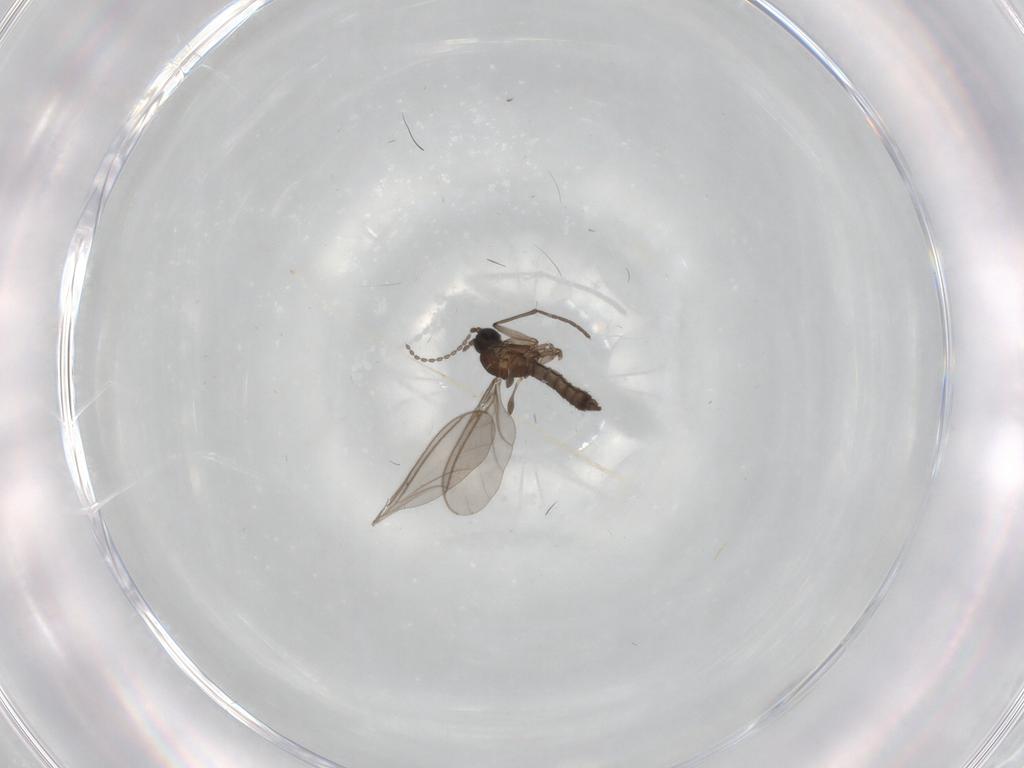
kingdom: Animalia
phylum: Arthropoda
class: Insecta
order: Diptera
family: Cecidomyiidae
